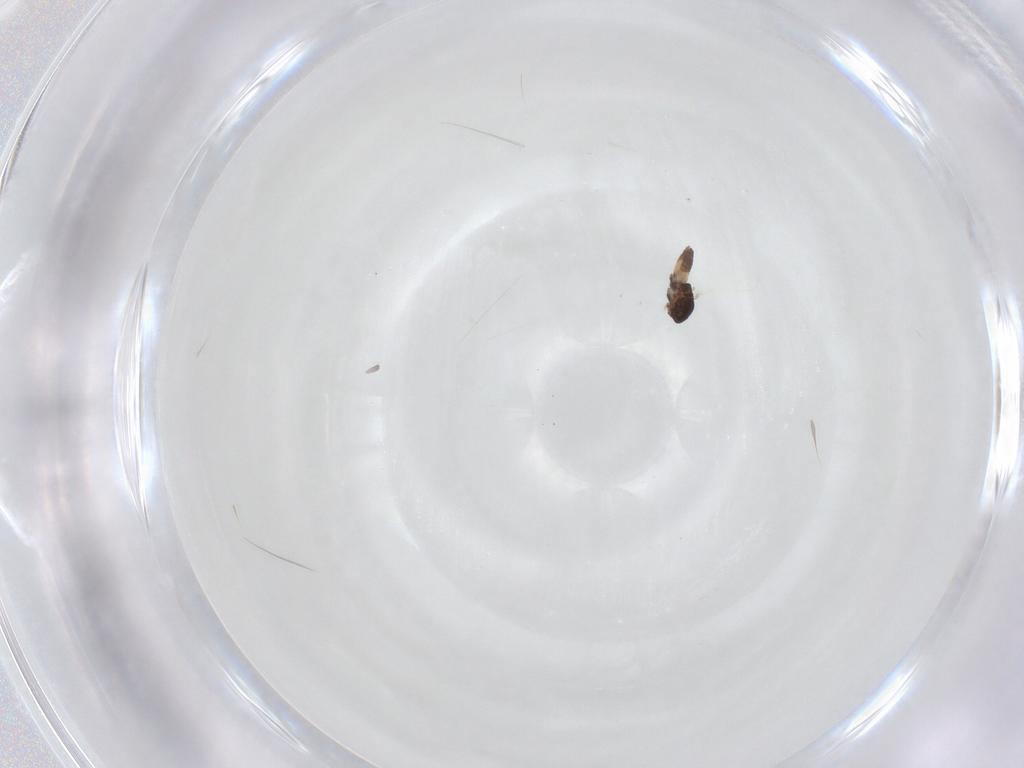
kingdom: Animalia
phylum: Arthropoda
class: Insecta
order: Diptera
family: Chironomidae
